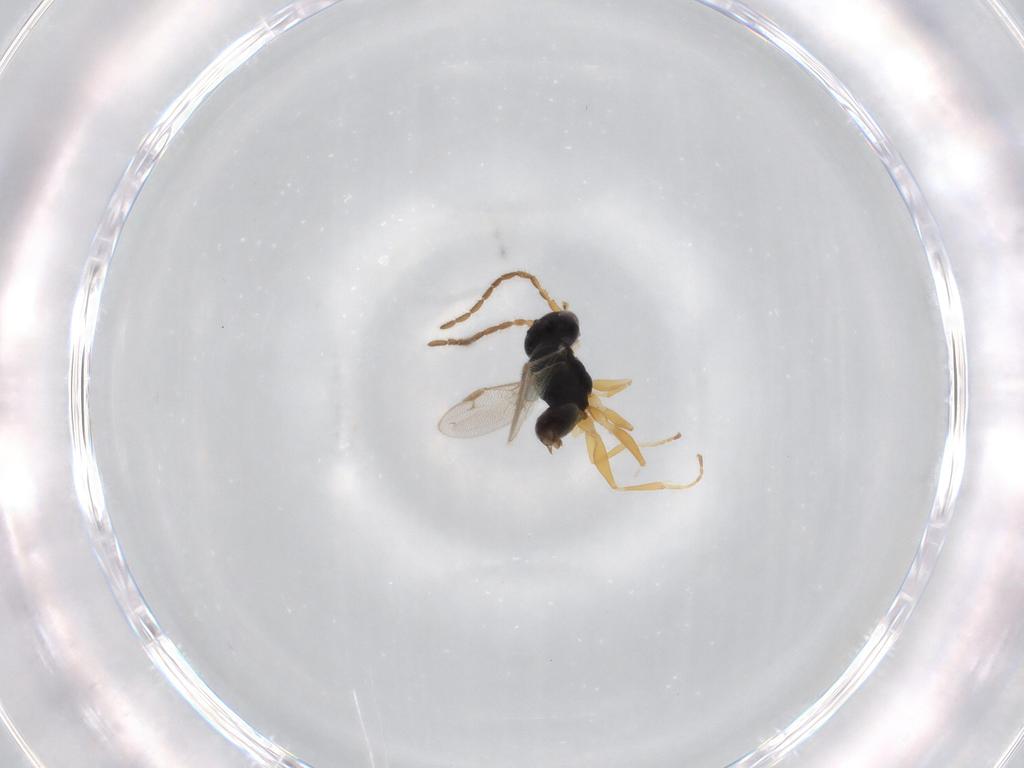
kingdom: Animalia
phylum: Arthropoda
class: Insecta
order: Hymenoptera
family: Dryinidae
